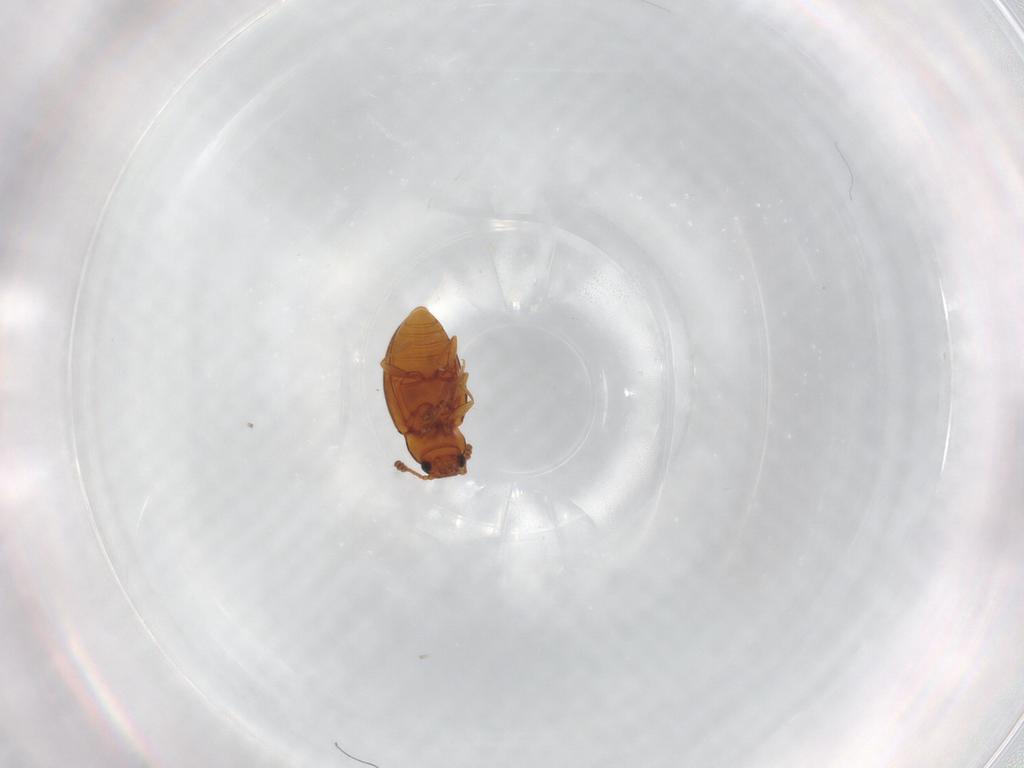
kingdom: Animalia
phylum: Arthropoda
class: Insecta
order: Coleoptera
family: Erotylidae
